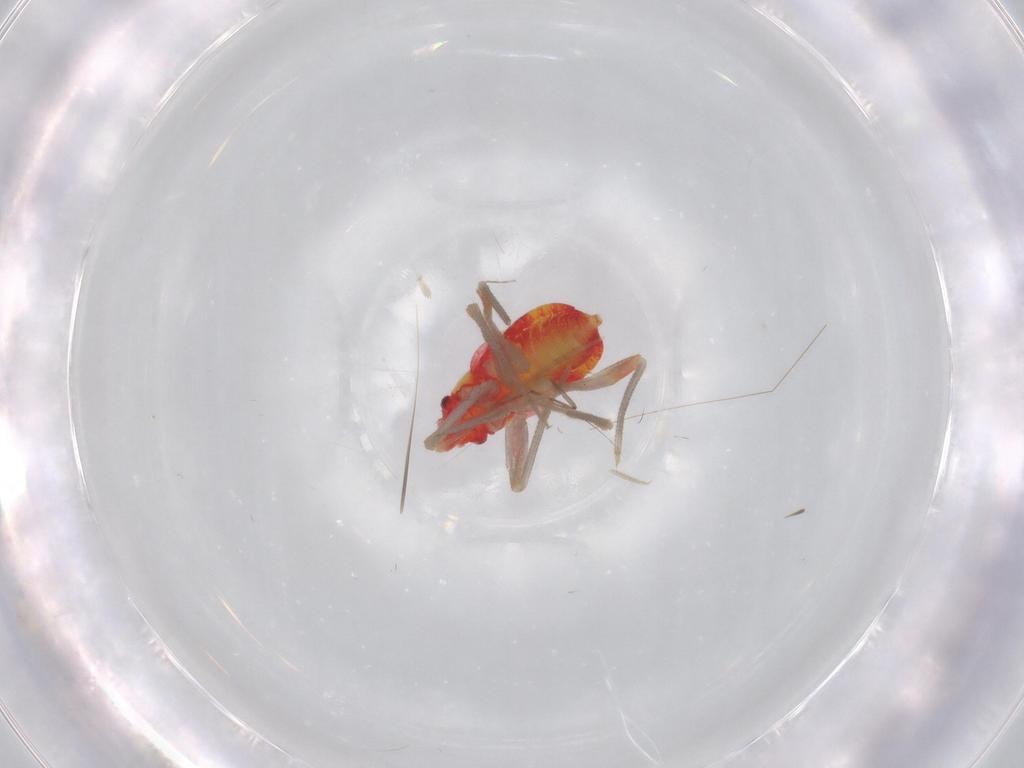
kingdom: Animalia
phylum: Arthropoda
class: Insecta
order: Hemiptera
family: Miridae
